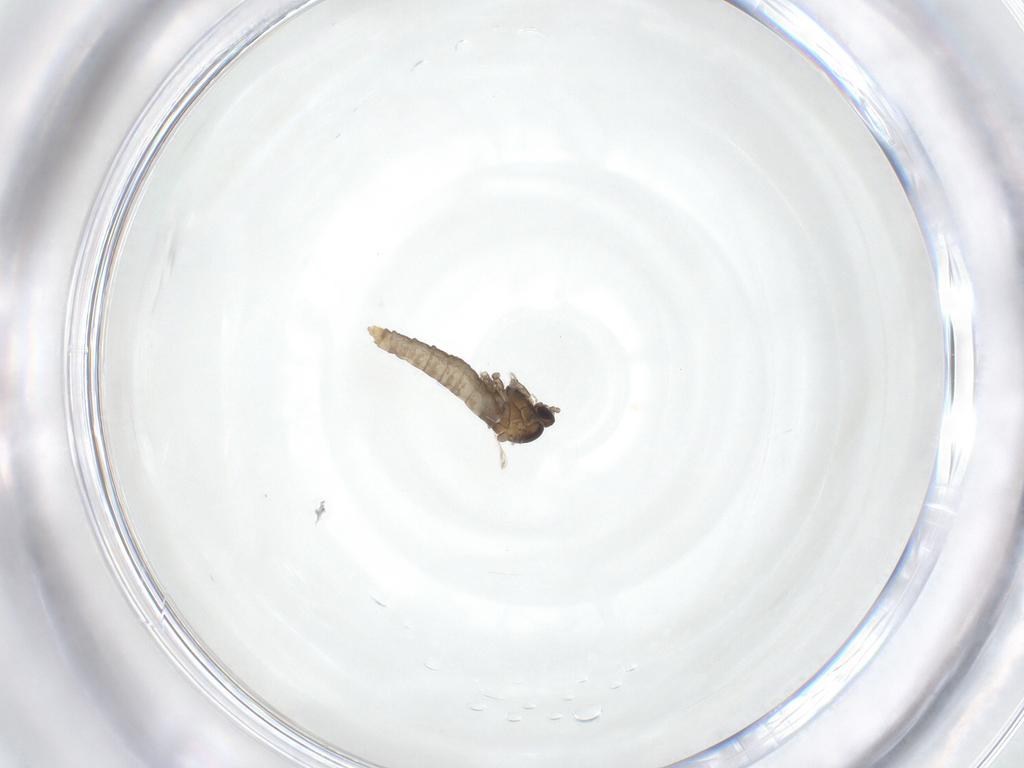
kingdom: Animalia
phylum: Arthropoda
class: Insecta
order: Diptera
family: Cecidomyiidae
